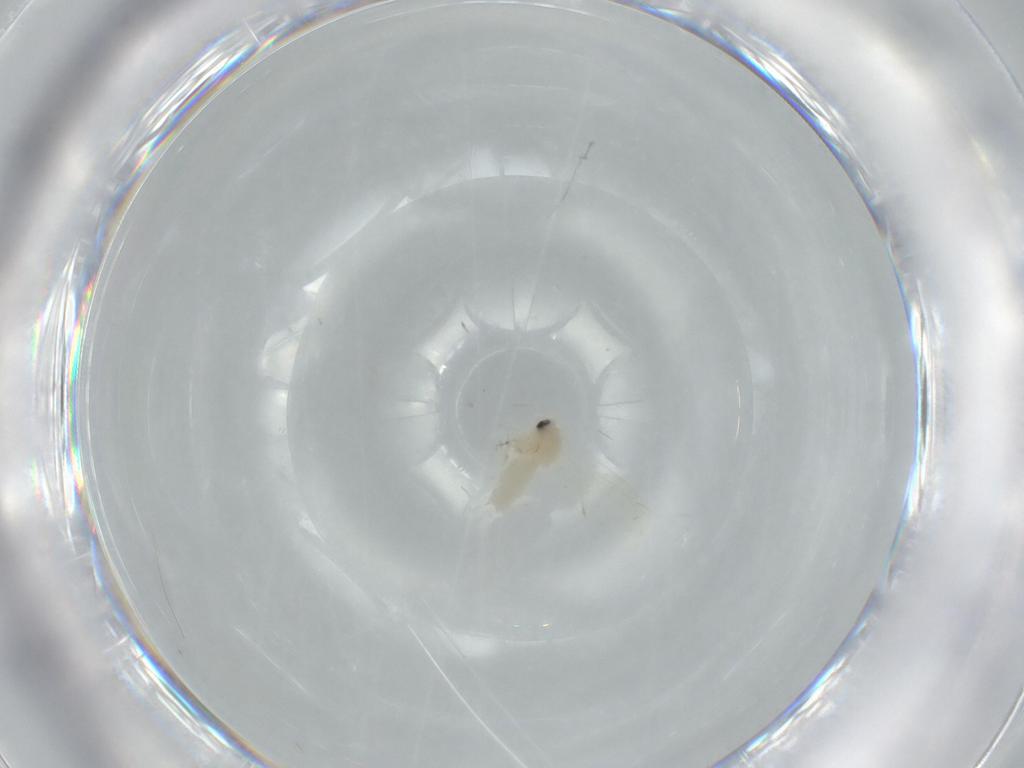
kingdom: Animalia
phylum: Arthropoda
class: Insecta
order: Hemiptera
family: Aleyrodidae
